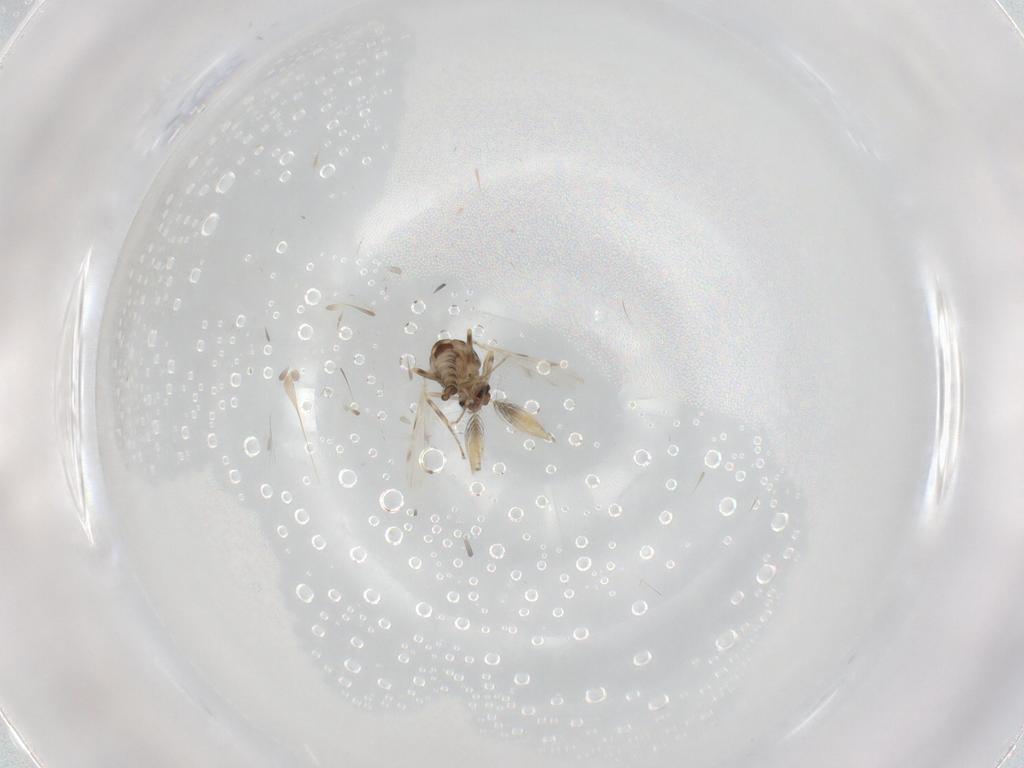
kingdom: Animalia
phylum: Arthropoda
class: Insecta
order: Diptera
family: Ceratopogonidae
